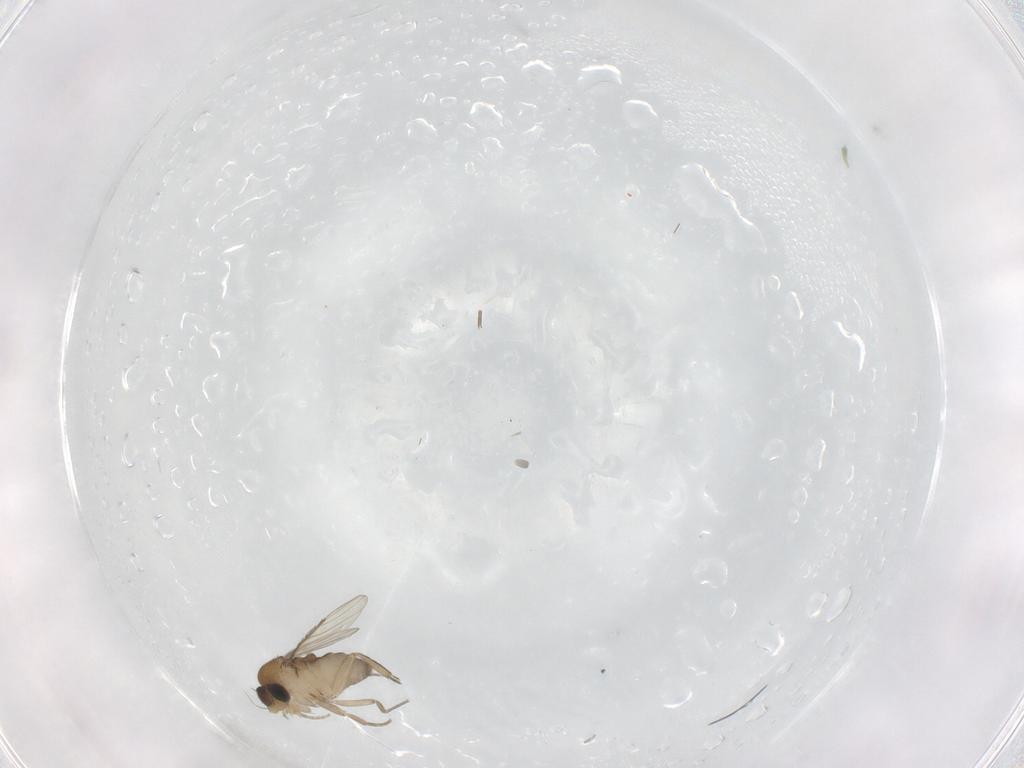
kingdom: Animalia
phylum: Arthropoda
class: Insecta
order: Diptera
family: Phoridae
